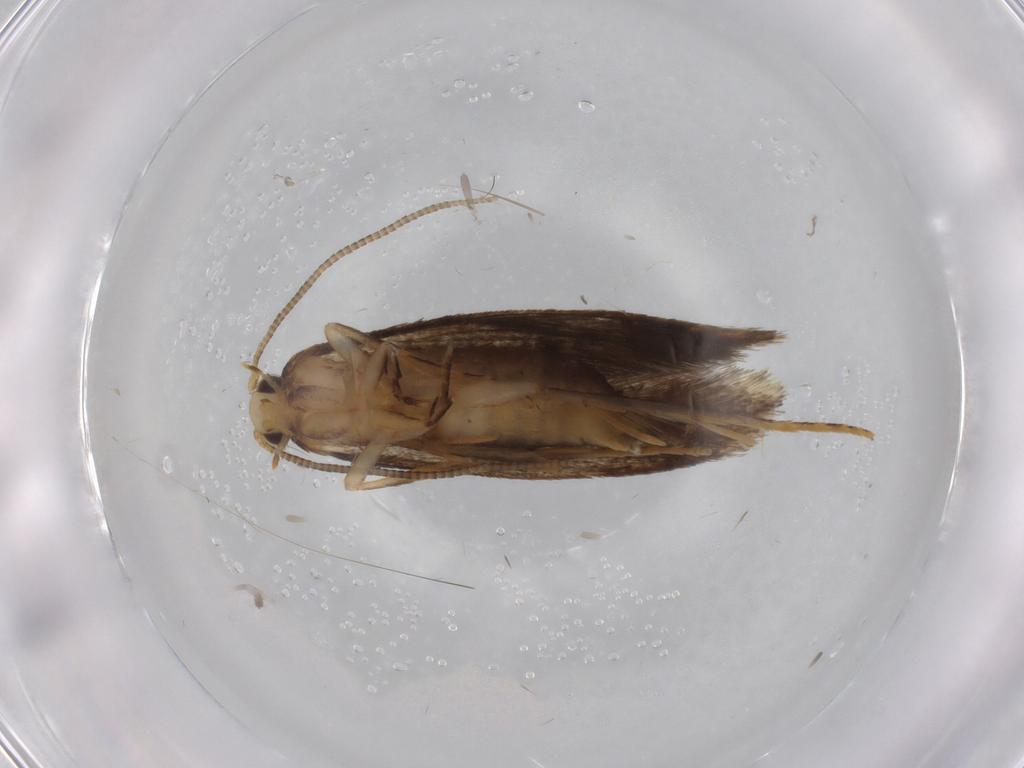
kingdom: Animalia
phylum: Arthropoda
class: Insecta
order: Lepidoptera
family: Tineidae
